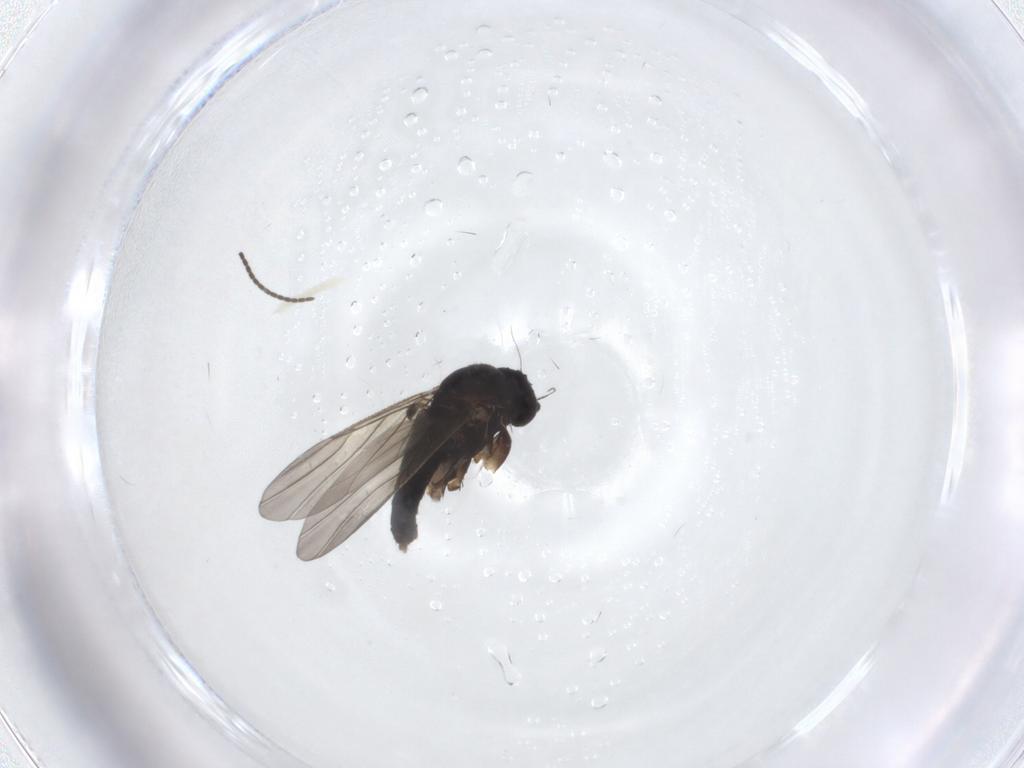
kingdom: Animalia
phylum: Arthropoda
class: Insecta
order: Diptera
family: Phoridae
